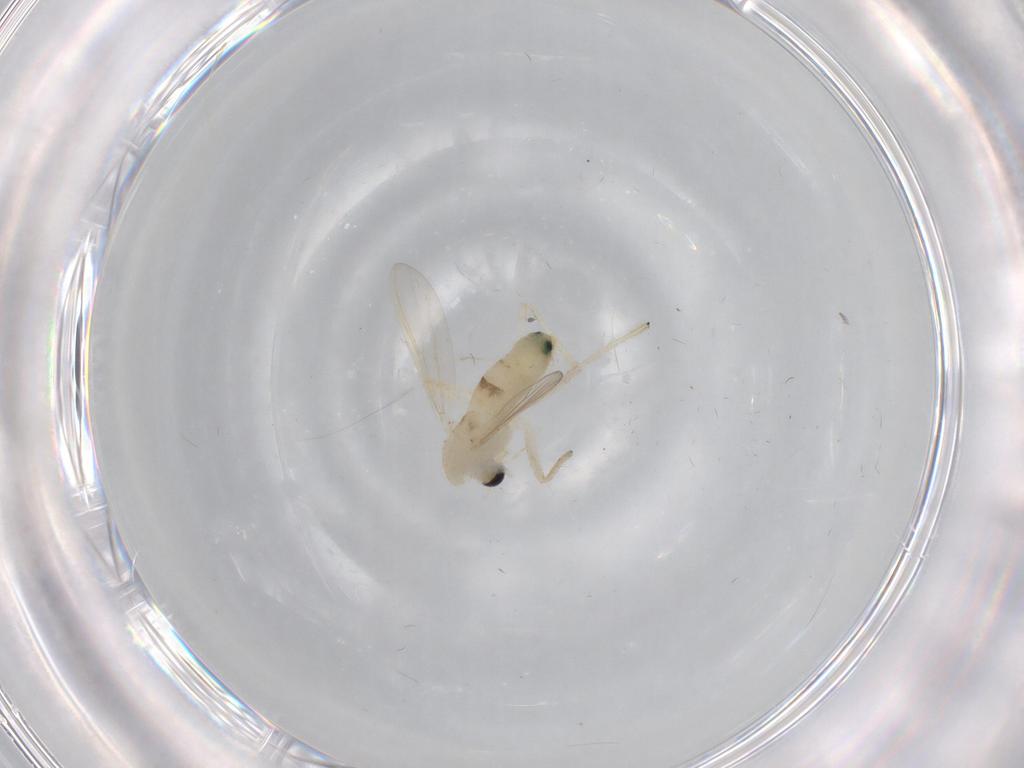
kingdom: Animalia
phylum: Arthropoda
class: Insecta
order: Diptera
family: Chironomidae
